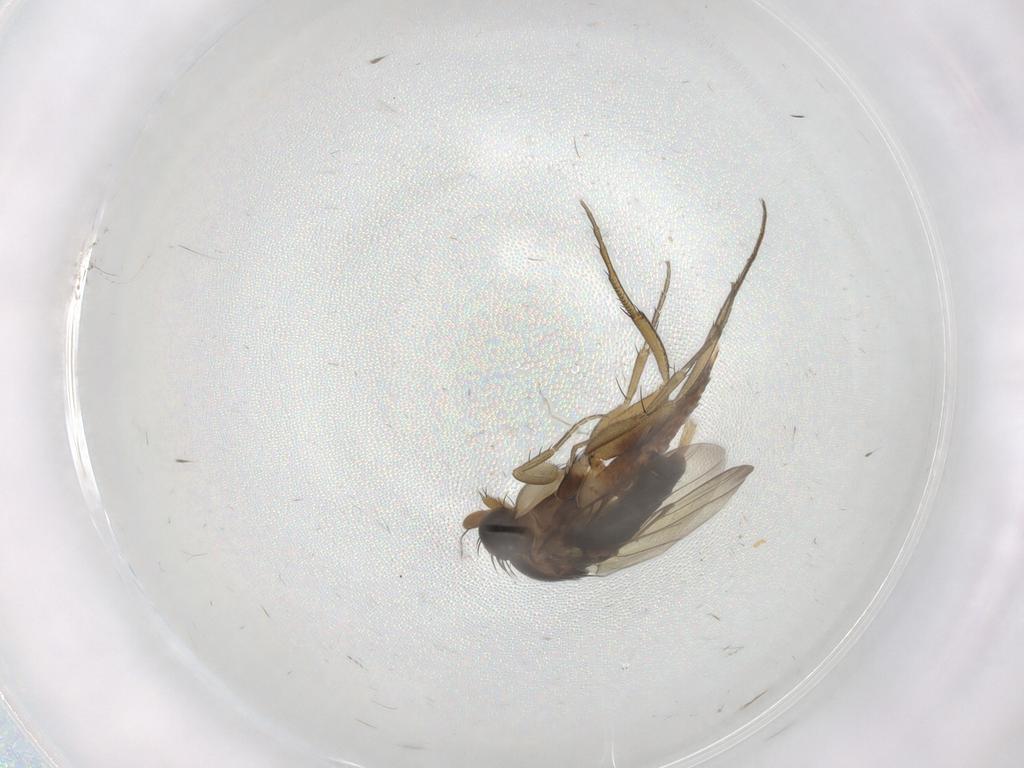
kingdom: Animalia
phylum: Arthropoda
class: Insecta
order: Diptera
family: Phoridae
